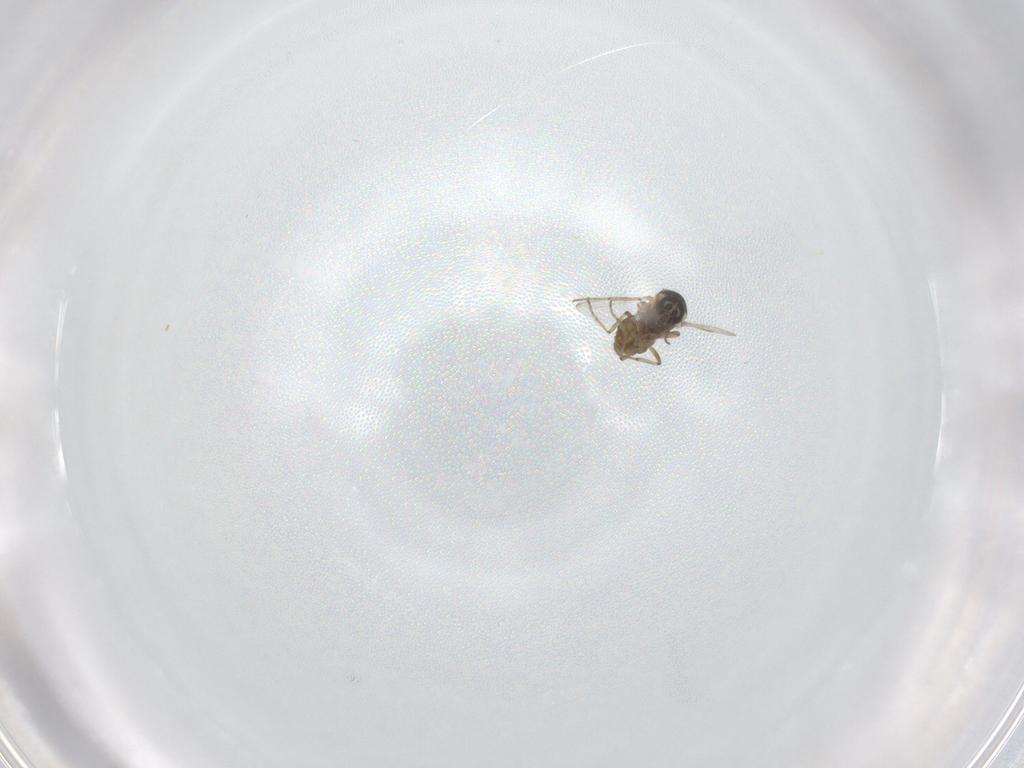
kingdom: Animalia
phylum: Arthropoda
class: Insecta
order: Diptera
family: Ceratopogonidae
